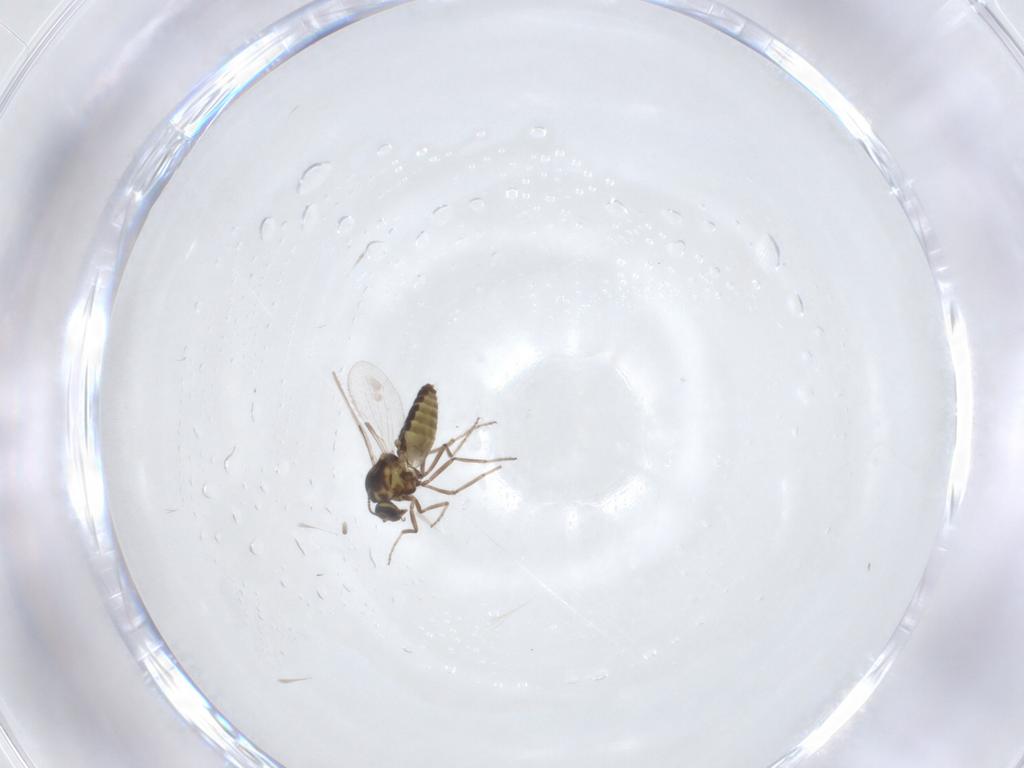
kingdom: Animalia
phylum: Arthropoda
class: Insecta
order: Diptera
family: Ceratopogonidae
